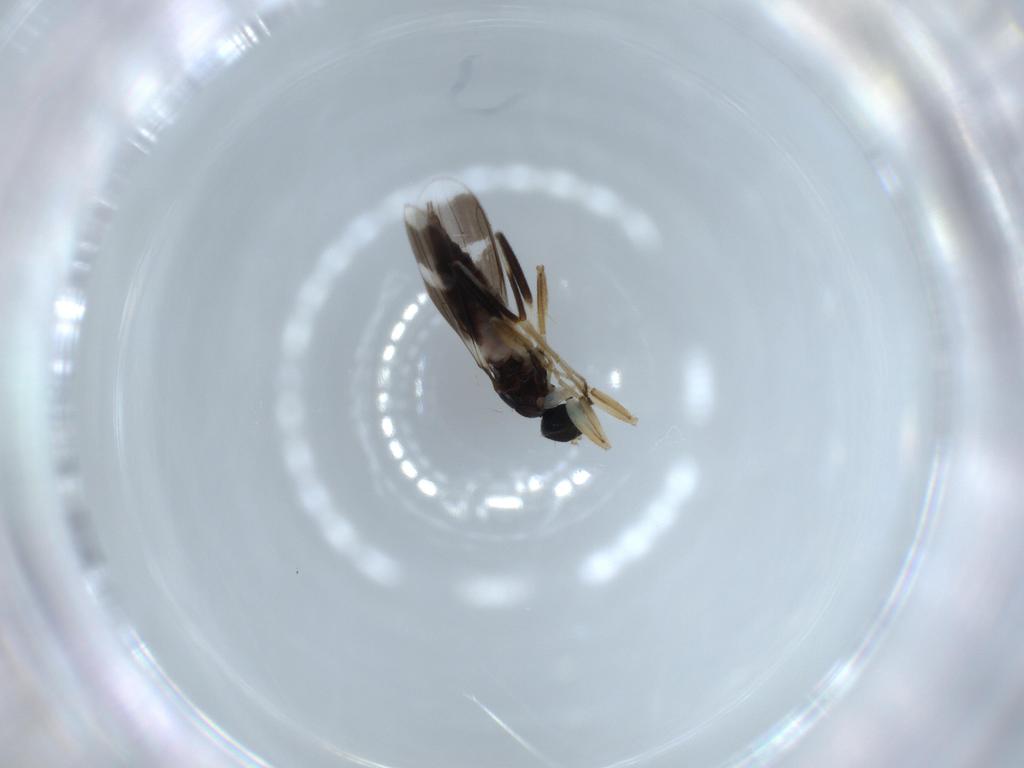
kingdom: Animalia
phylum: Arthropoda
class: Insecta
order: Diptera
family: Hybotidae
